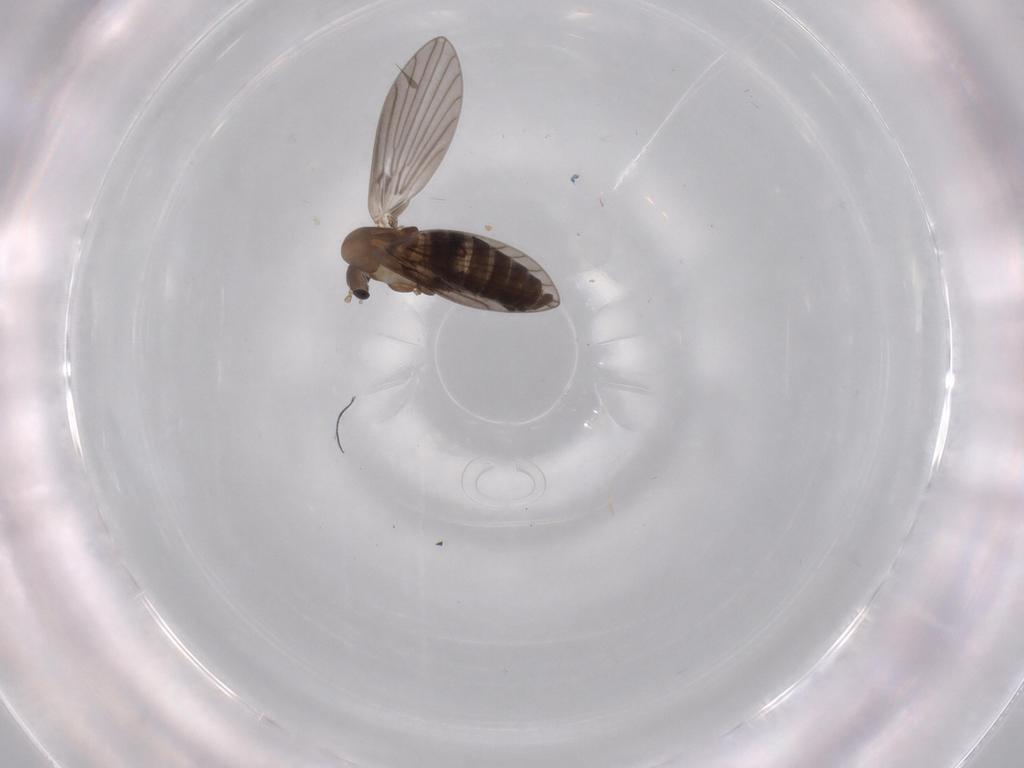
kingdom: Animalia
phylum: Arthropoda
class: Insecta
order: Diptera
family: Psychodidae
